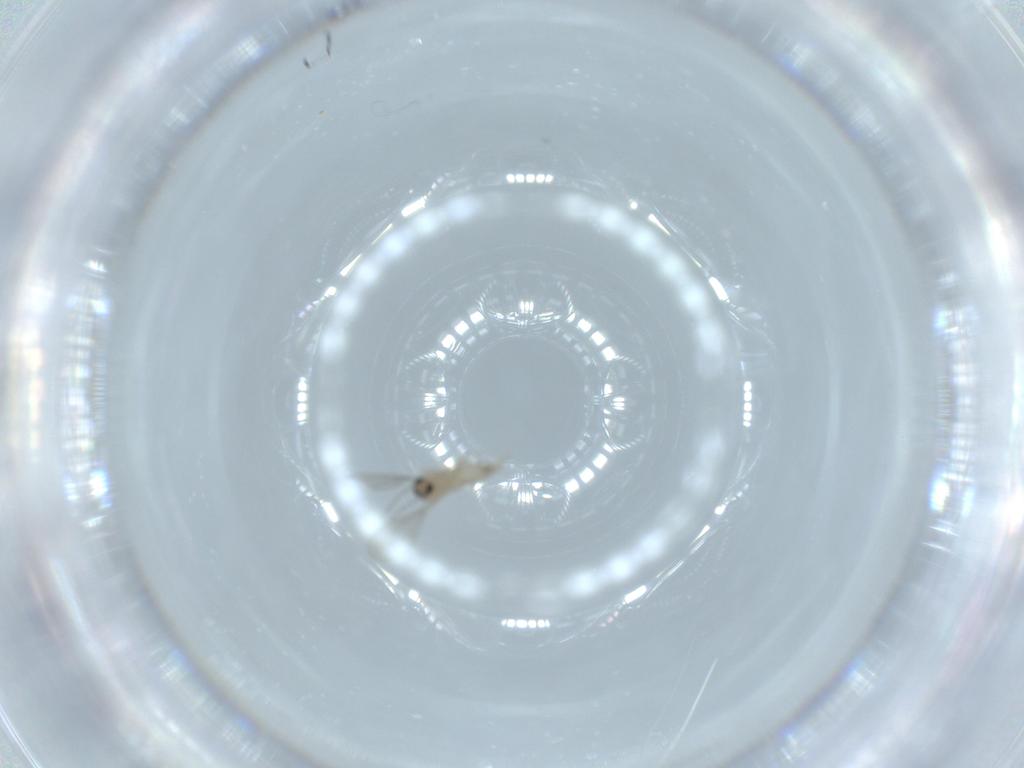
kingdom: Animalia
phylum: Arthropoda
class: Insecta
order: Diptera
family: Cecidomyiidae
